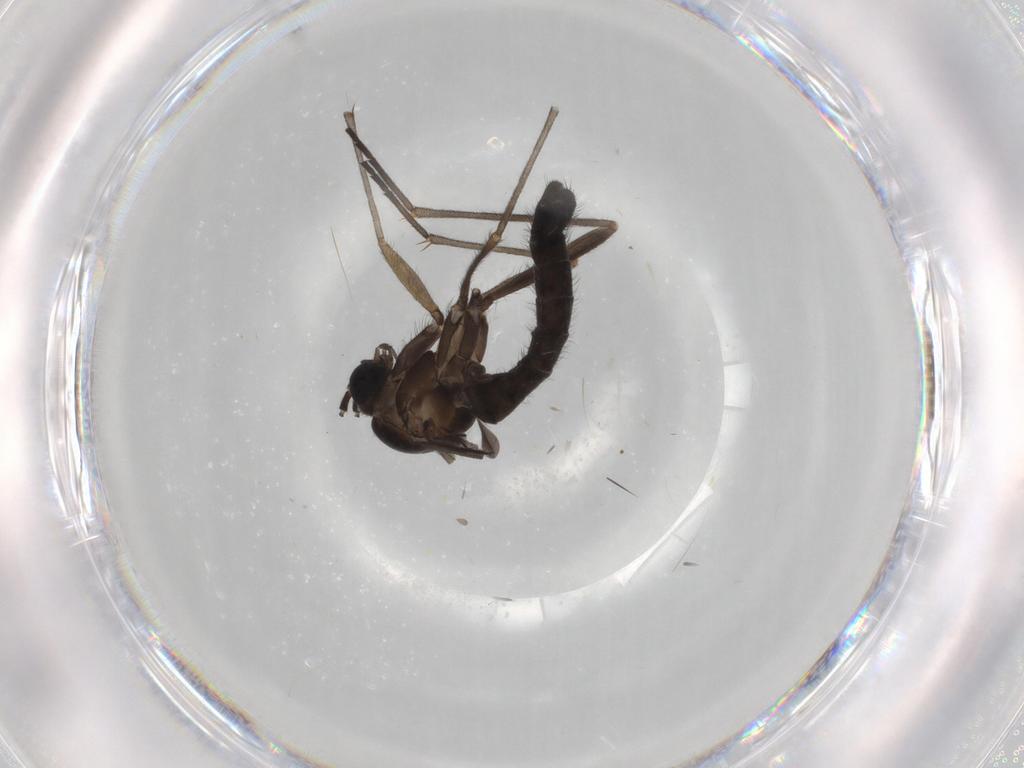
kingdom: Animalia
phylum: Arthropoda
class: Insecta
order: Diptera
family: Sciaridae
